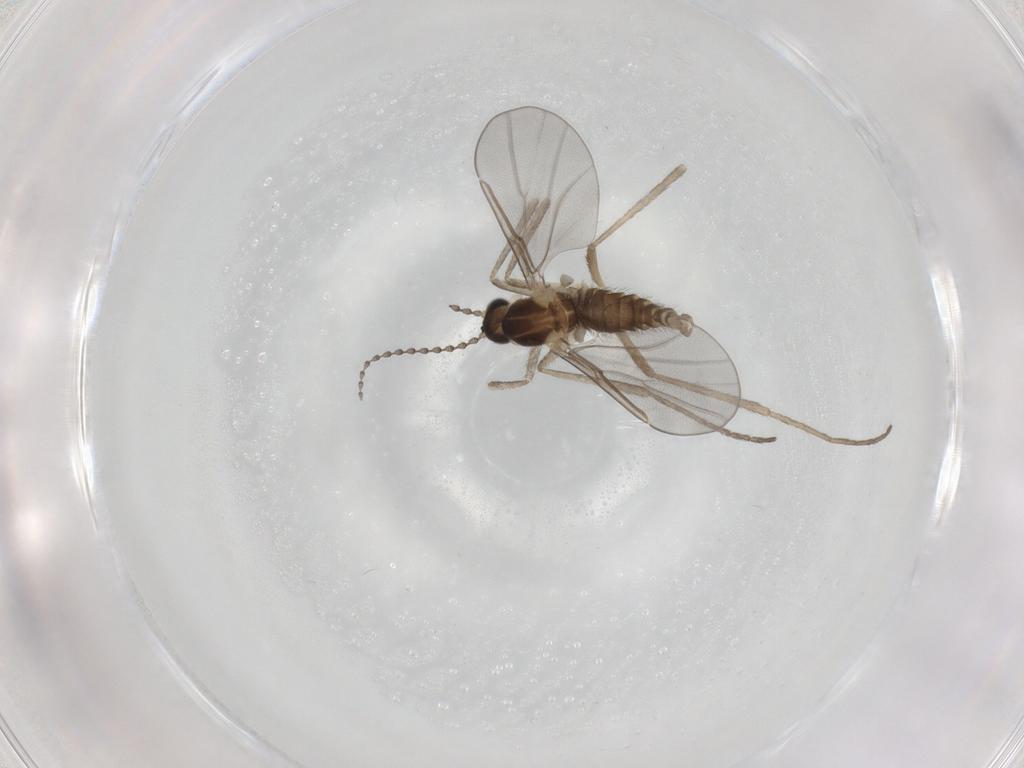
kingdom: Animalia
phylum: Arthropoda
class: Insecta
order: Diptera
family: Cecidomyiidae
